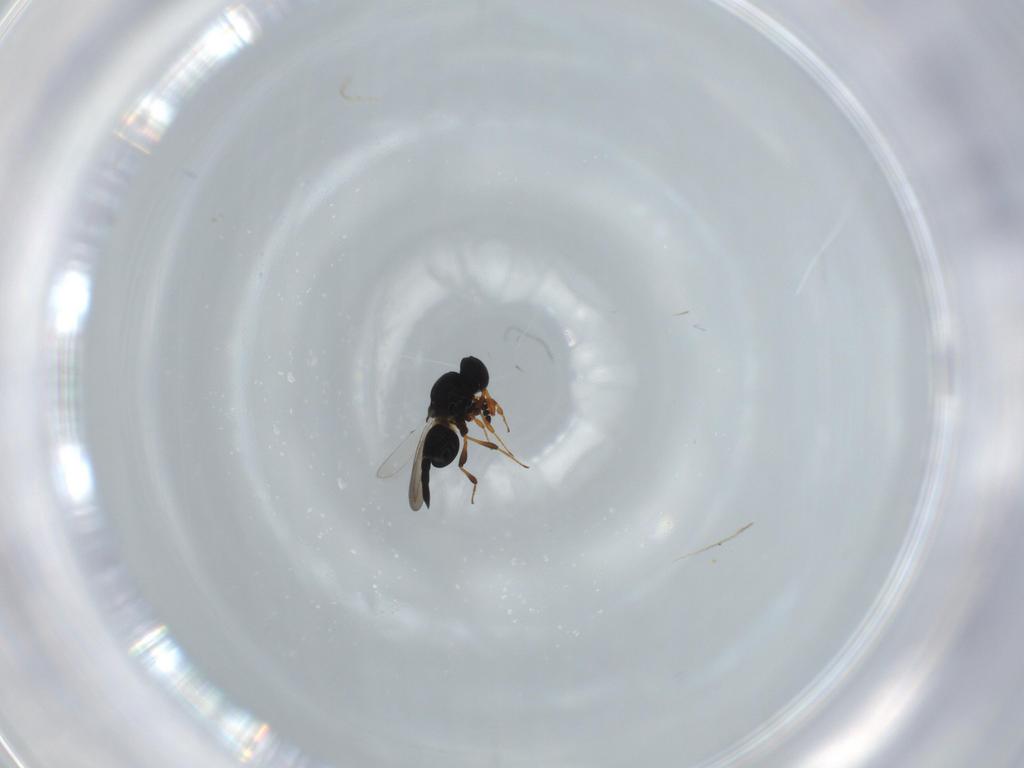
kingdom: Animalia
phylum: Arthropoda
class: Insecta
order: Hymenoptera
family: Platygastridae
